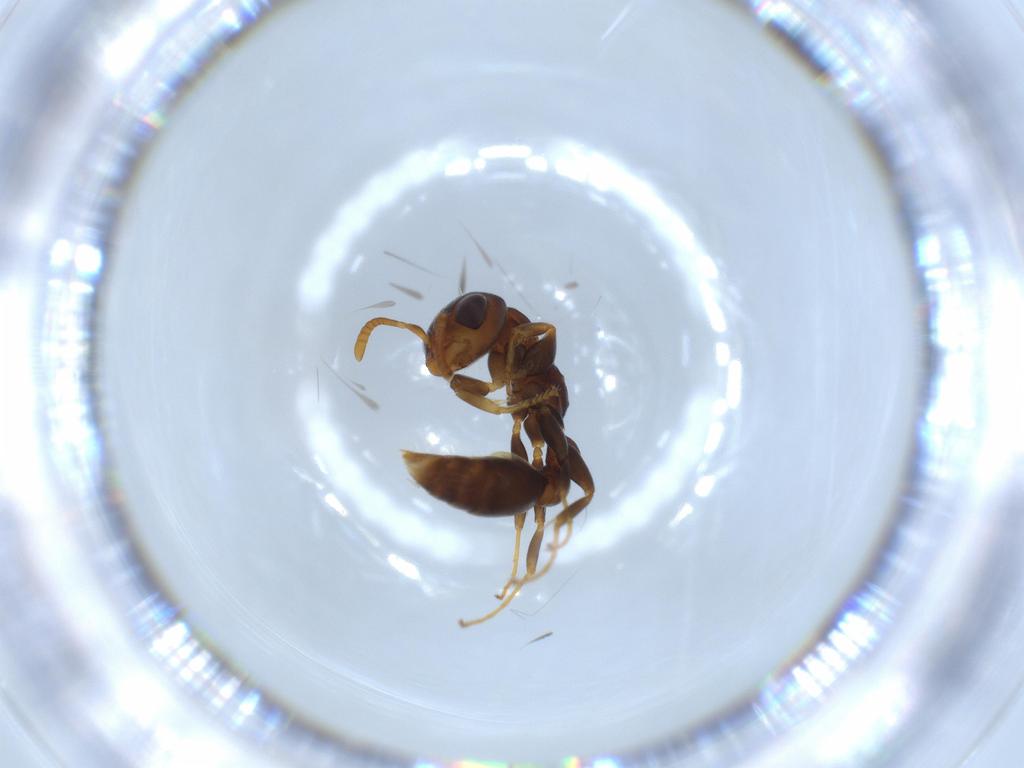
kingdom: Animalia
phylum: Arthropoda
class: Insecta
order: Hymenoptera
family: Formicidae
